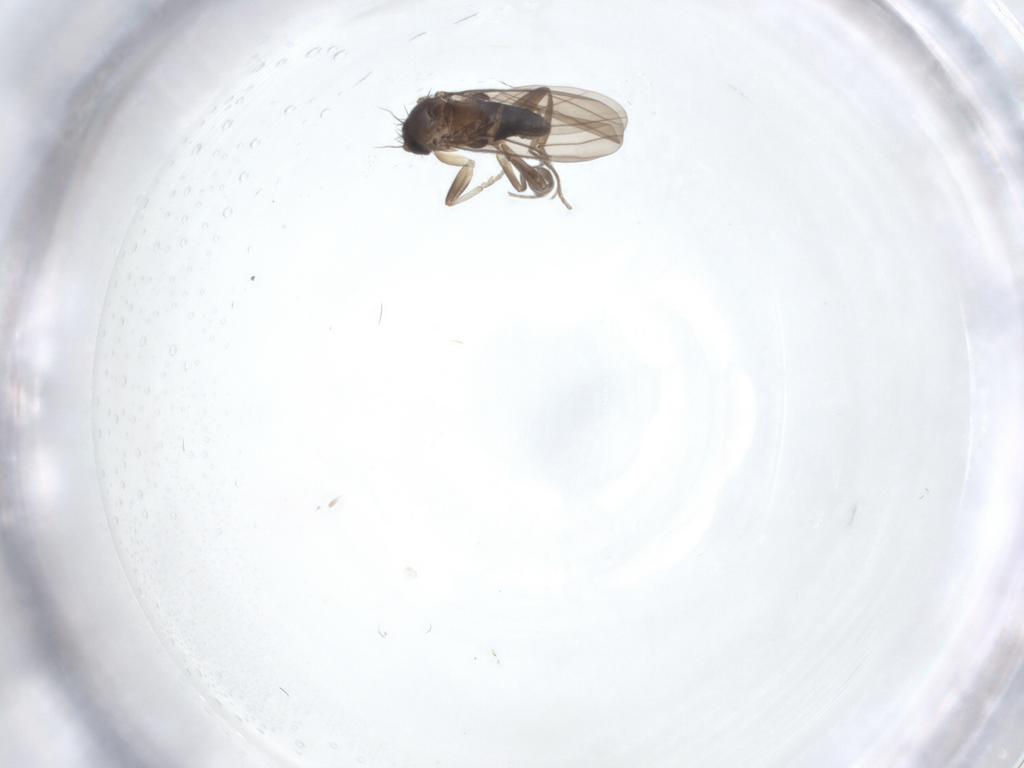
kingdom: Animalia
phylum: Arthropoda
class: Insecta
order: Diptera
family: Phoridae
